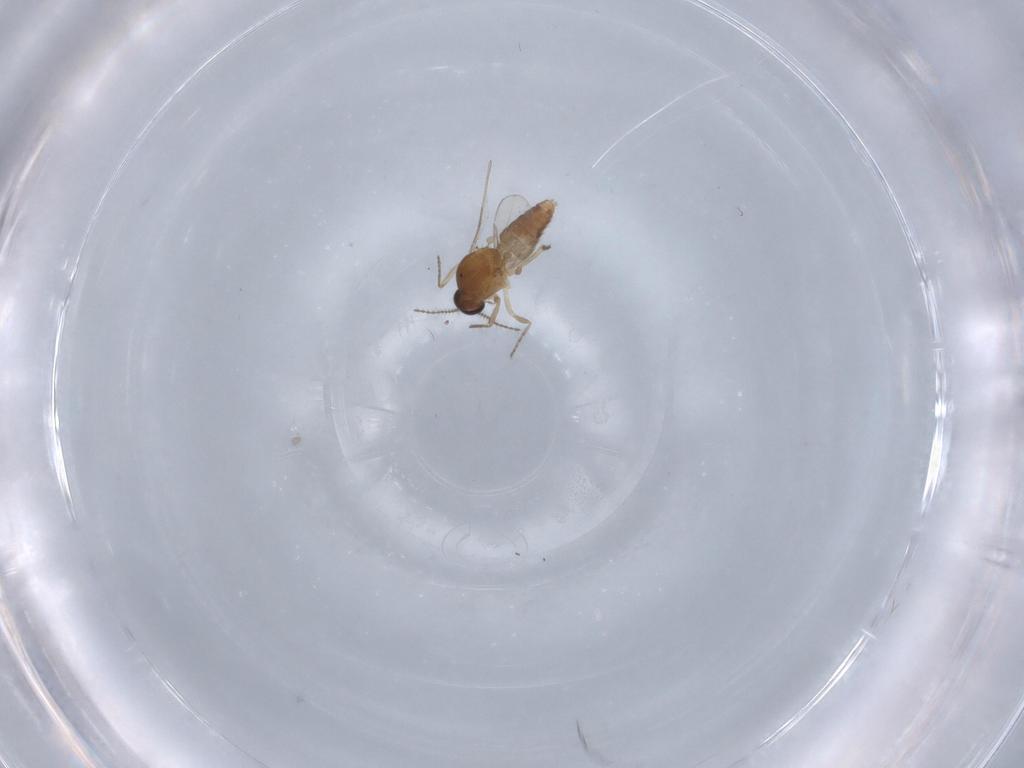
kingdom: Animalia
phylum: Arthropoda
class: Insecta
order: Diptera
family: Ceratopogonidae
